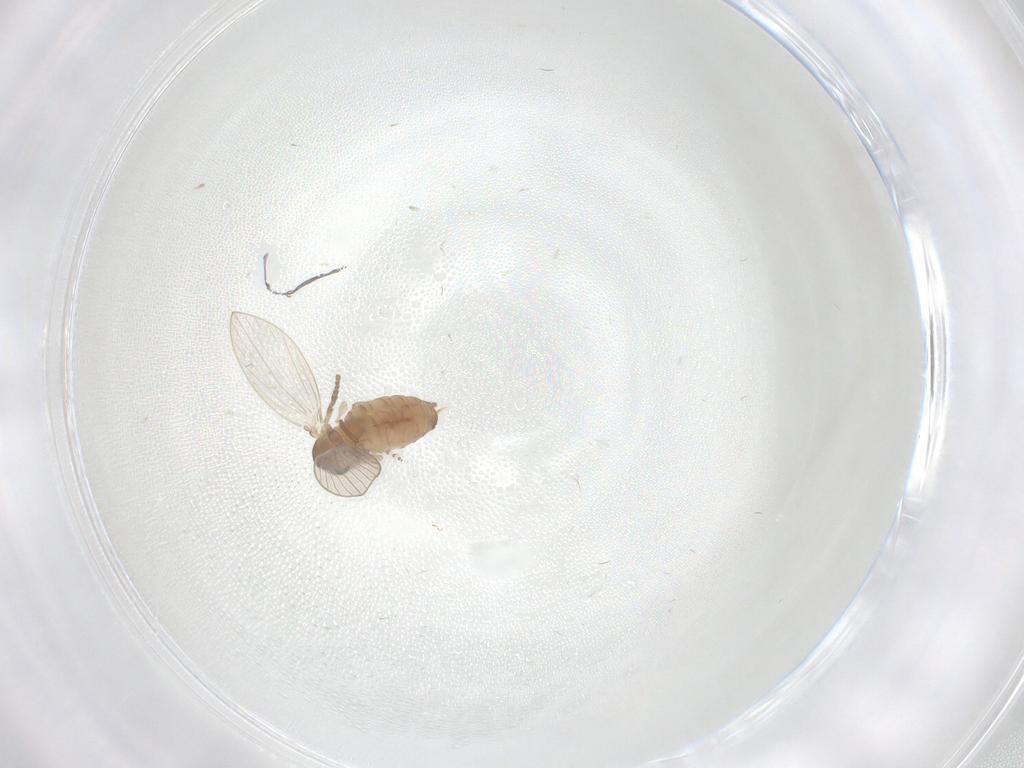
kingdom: Animalia
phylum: Arthropoda
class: Insecta
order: Diptera
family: Psychodidae
